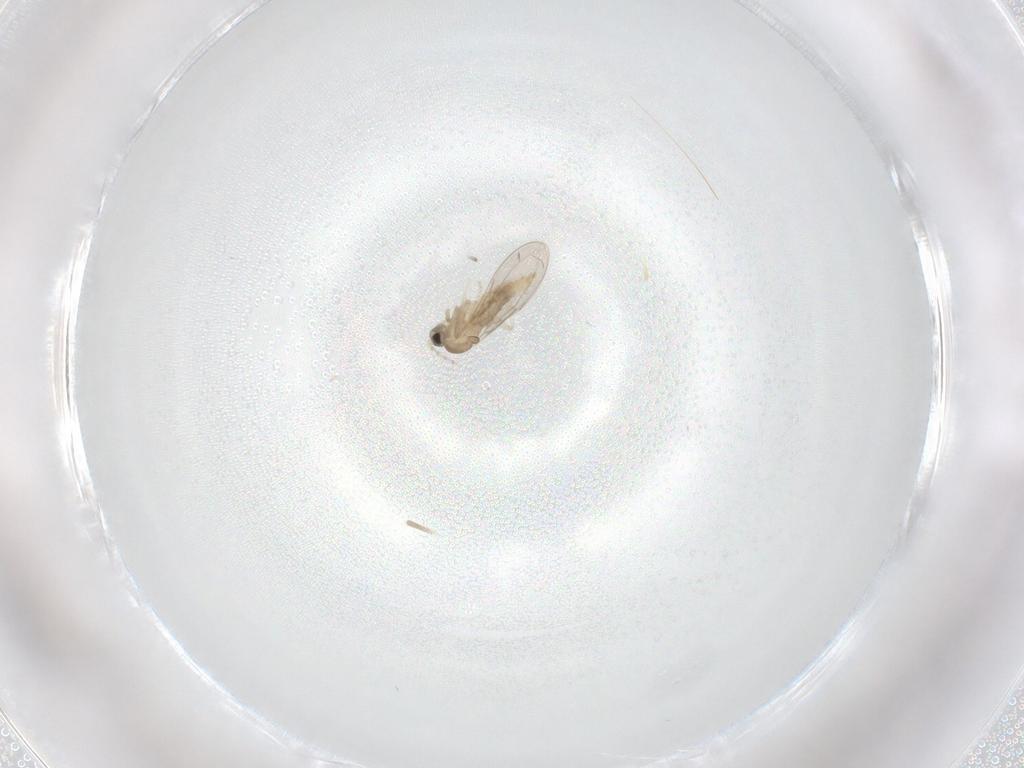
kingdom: Animalia
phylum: Arthropoda
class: Insecta
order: Diptera
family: Cecidomyiidae
